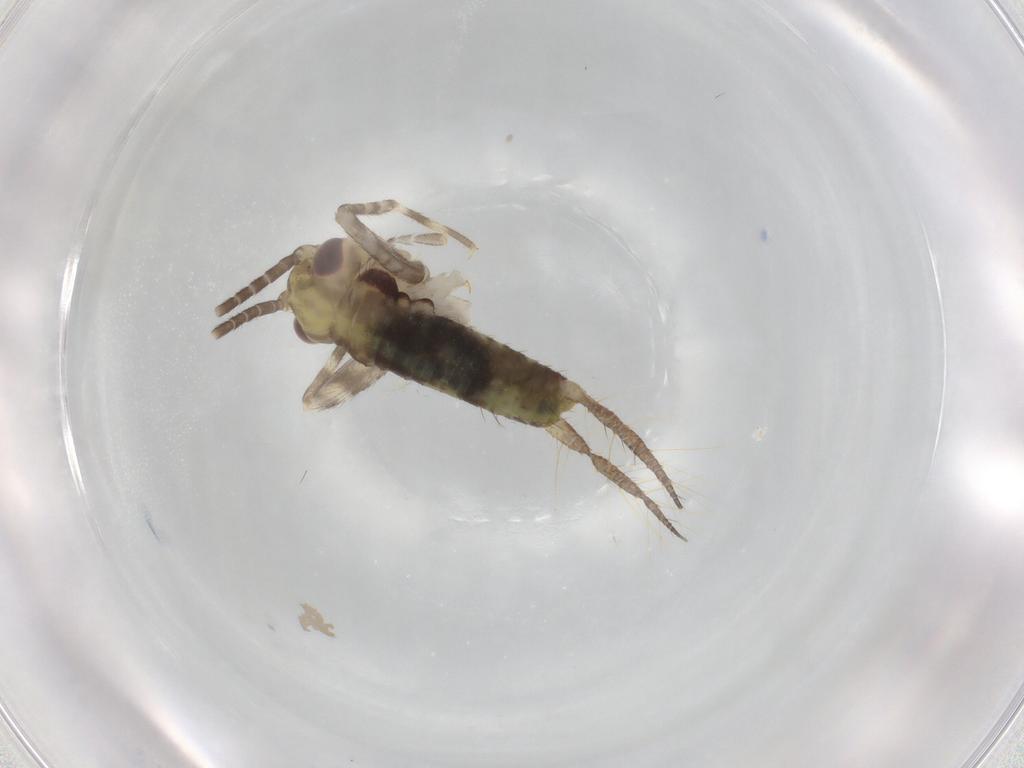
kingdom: Animalia
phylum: Arthropoda
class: Insecta
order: Orthoptera
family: Gryllidae
